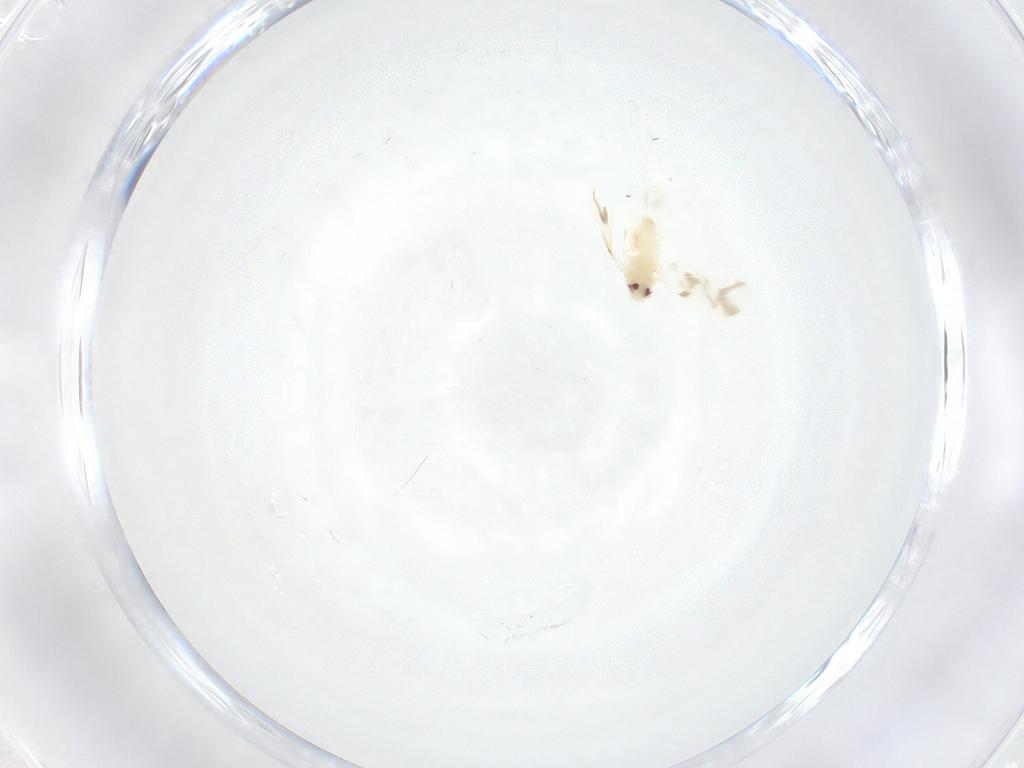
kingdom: Animalia
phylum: Arthropoda
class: Insecta
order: Hemiptera
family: Aleyrodidae
